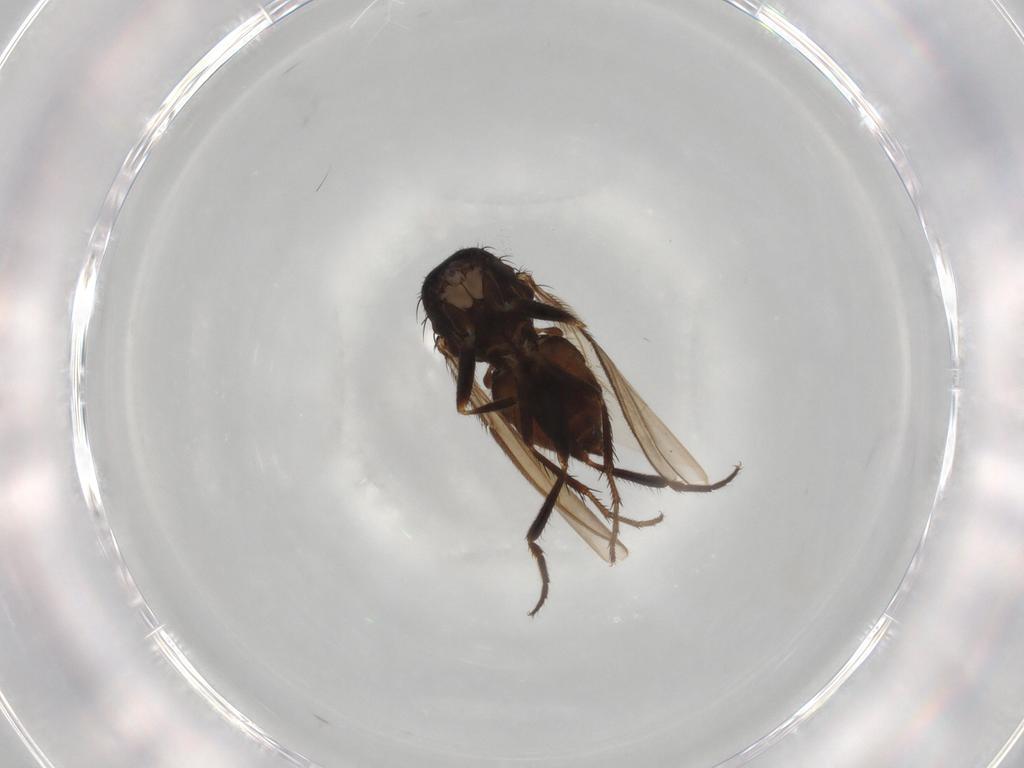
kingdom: Animalia
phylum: Arthropoda
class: Insecta
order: Diptera
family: Sphaeroceridae
